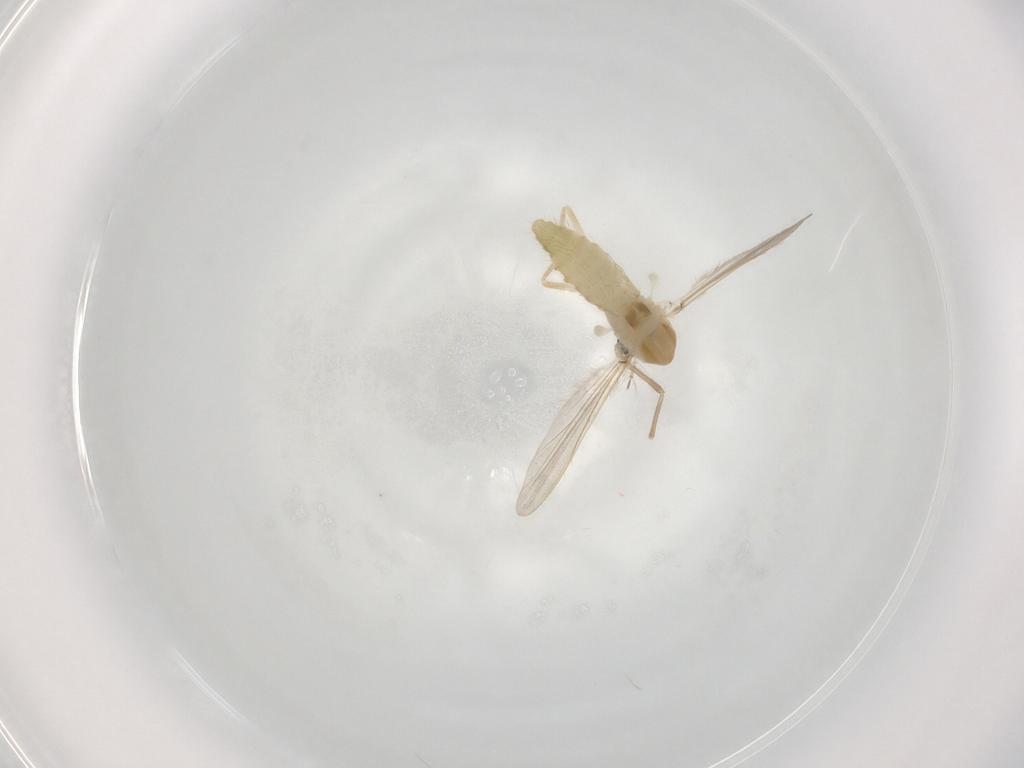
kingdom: Animalia
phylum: Arthropoda
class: Insecta
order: Diptera
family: Chironomidae
